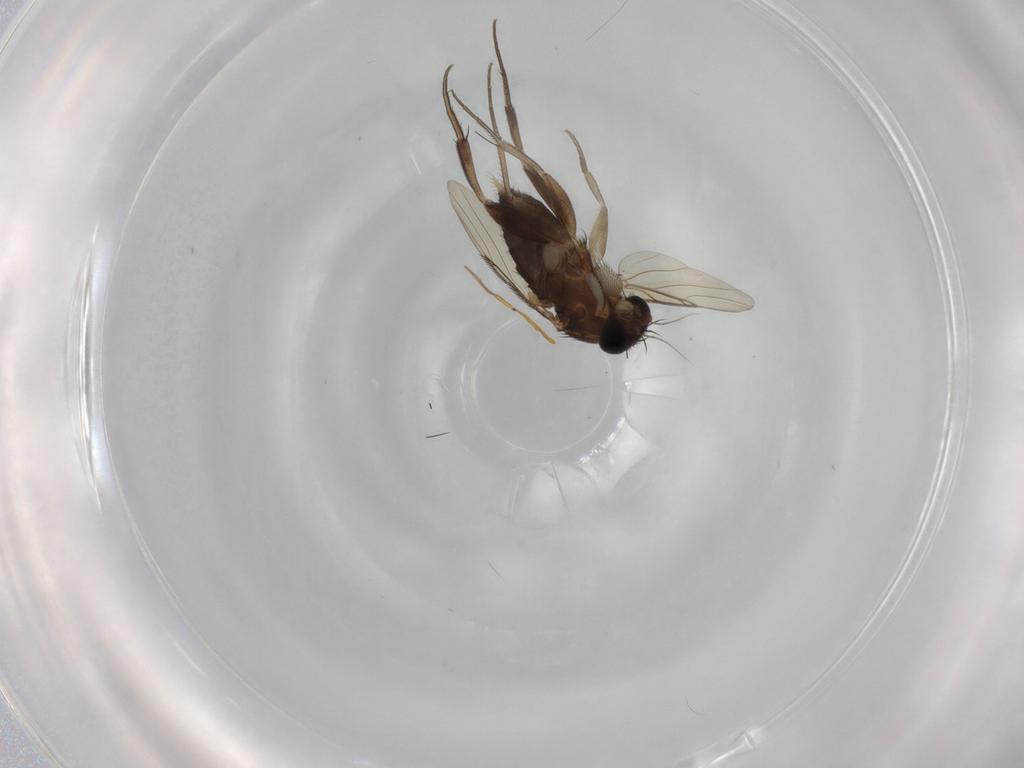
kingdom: Animalia
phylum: Arthropoda
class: Insecta
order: Diptera
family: Phoridae
